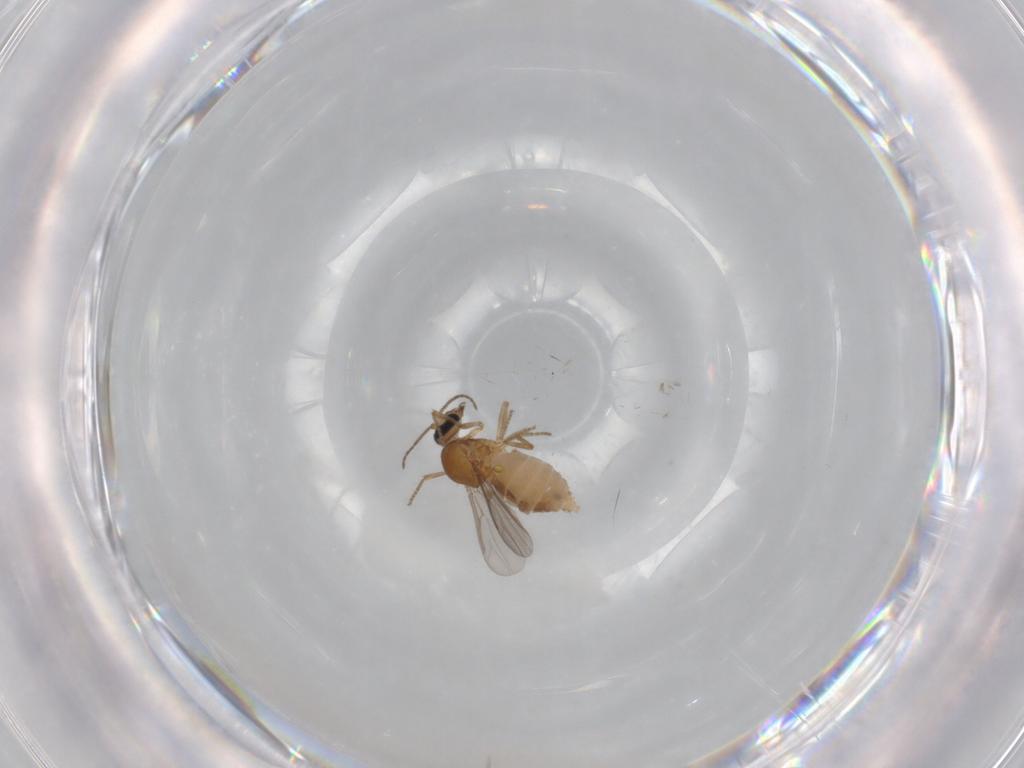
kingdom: Animalia
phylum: Arthropoda
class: Insecta
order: Diptera
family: Ceratopogonidae
